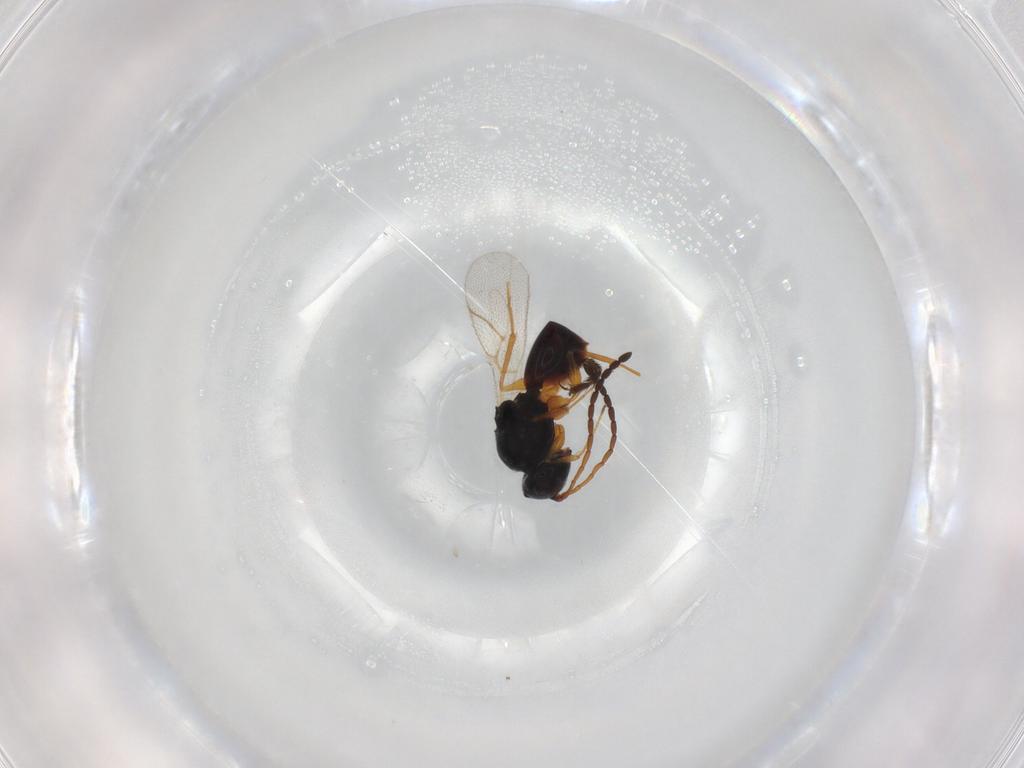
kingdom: Animalia
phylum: Arthropoda
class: Insecta
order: Hymenoptera
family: Figitidae
